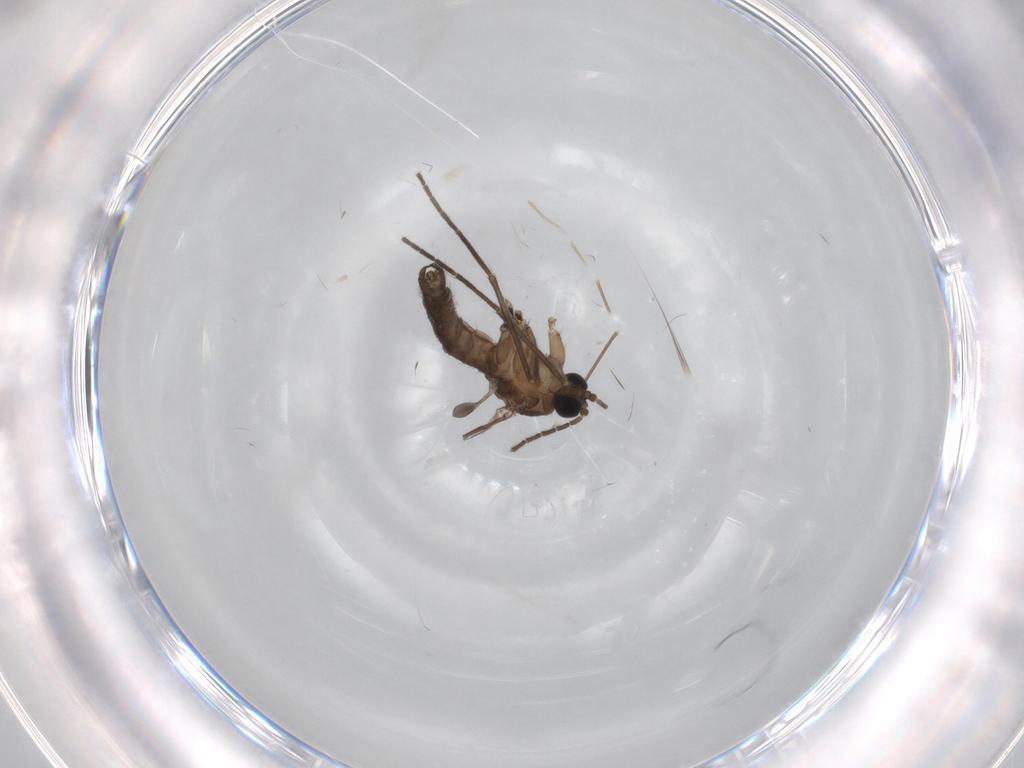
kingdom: Animalia
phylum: Arthropoda
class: Insecta
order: Diptera
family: Chironomidae
